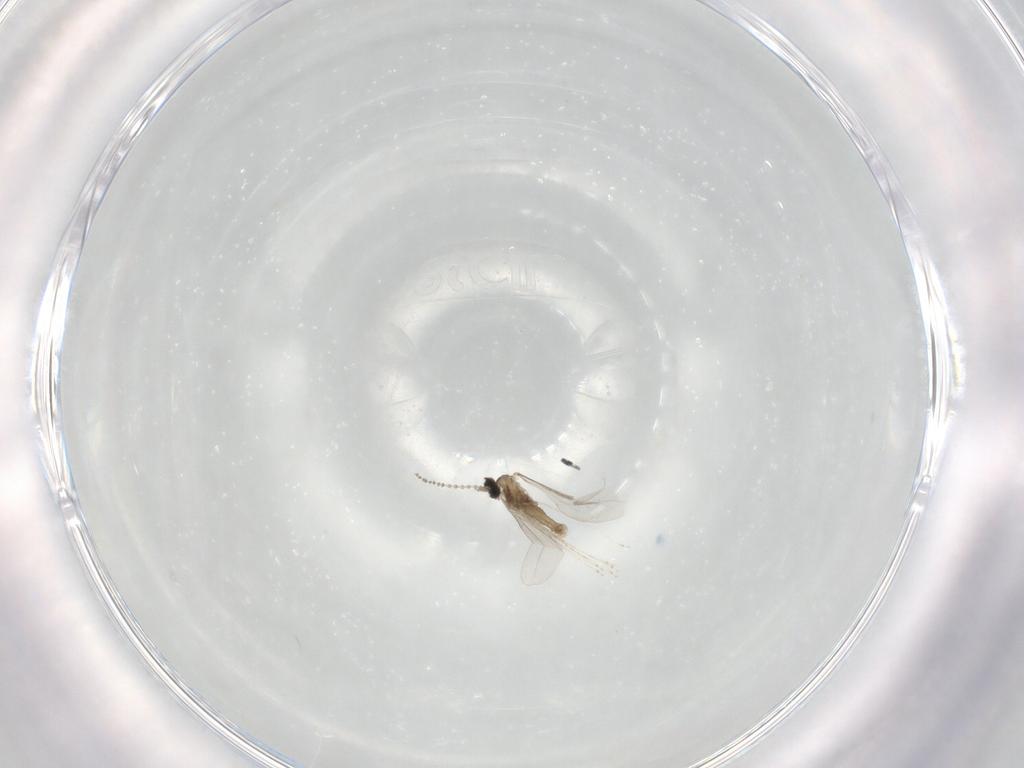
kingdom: Animalia
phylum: Arthropoda
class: Insecta
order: Diptera
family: Cecidomyiidae
